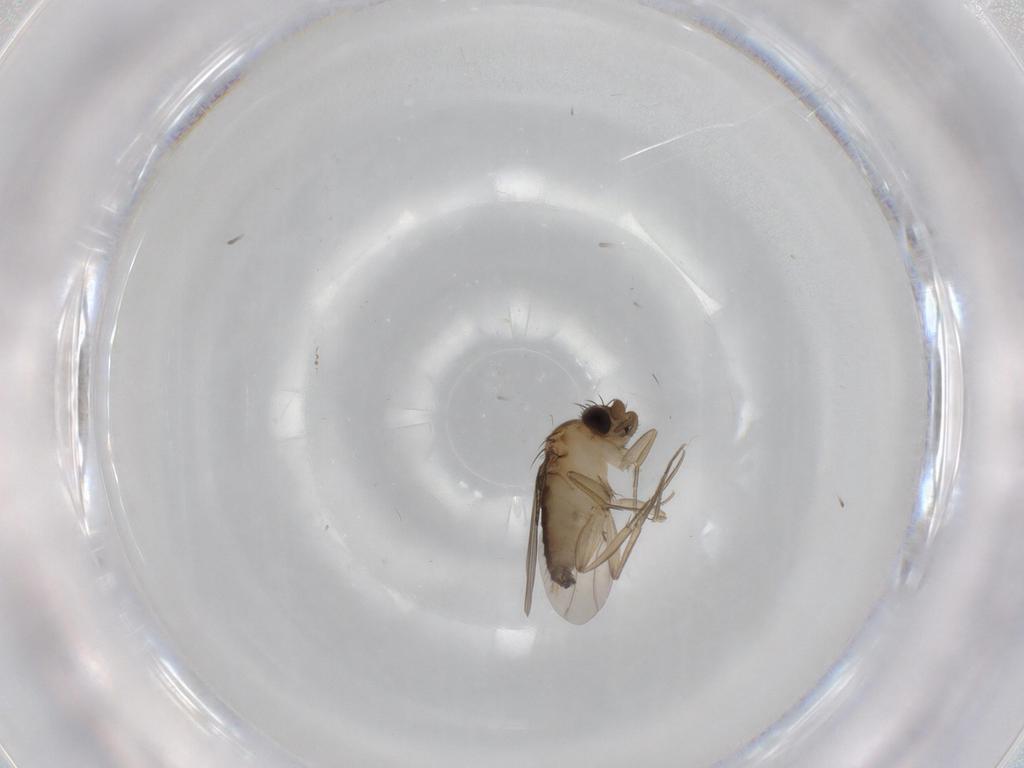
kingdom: Animalia
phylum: Arthropoda
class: Insecta
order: Diptera
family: Phoridae
